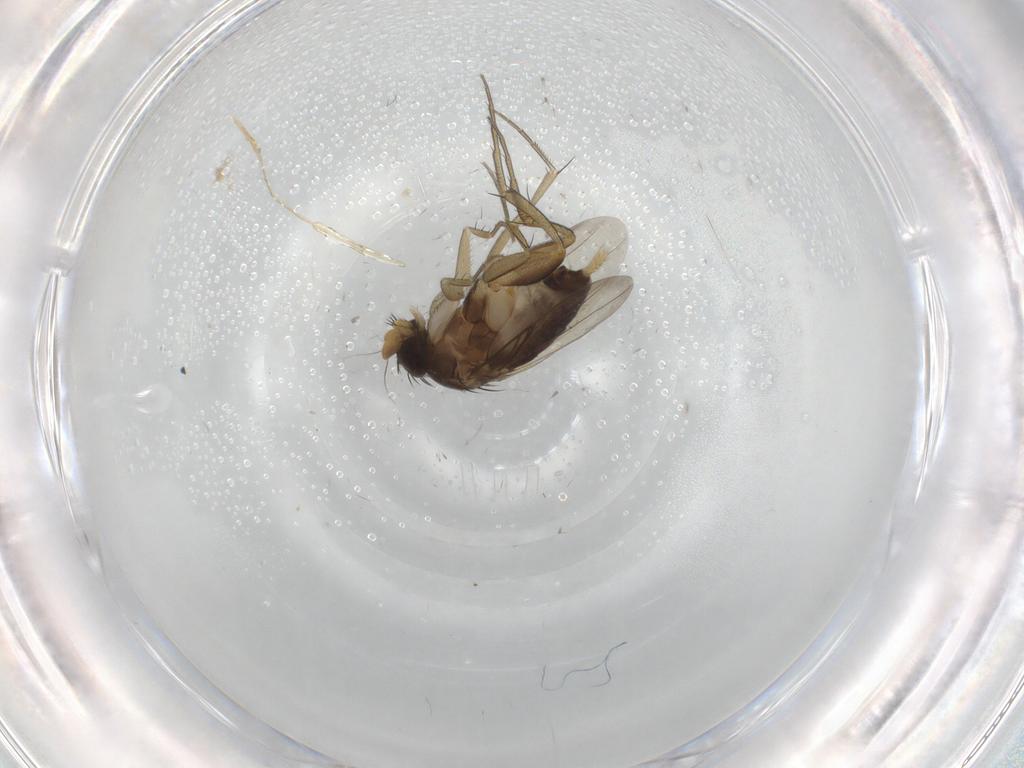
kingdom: Animalia
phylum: Arthropoda
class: Insecta
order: Diptera
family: Phoridae
